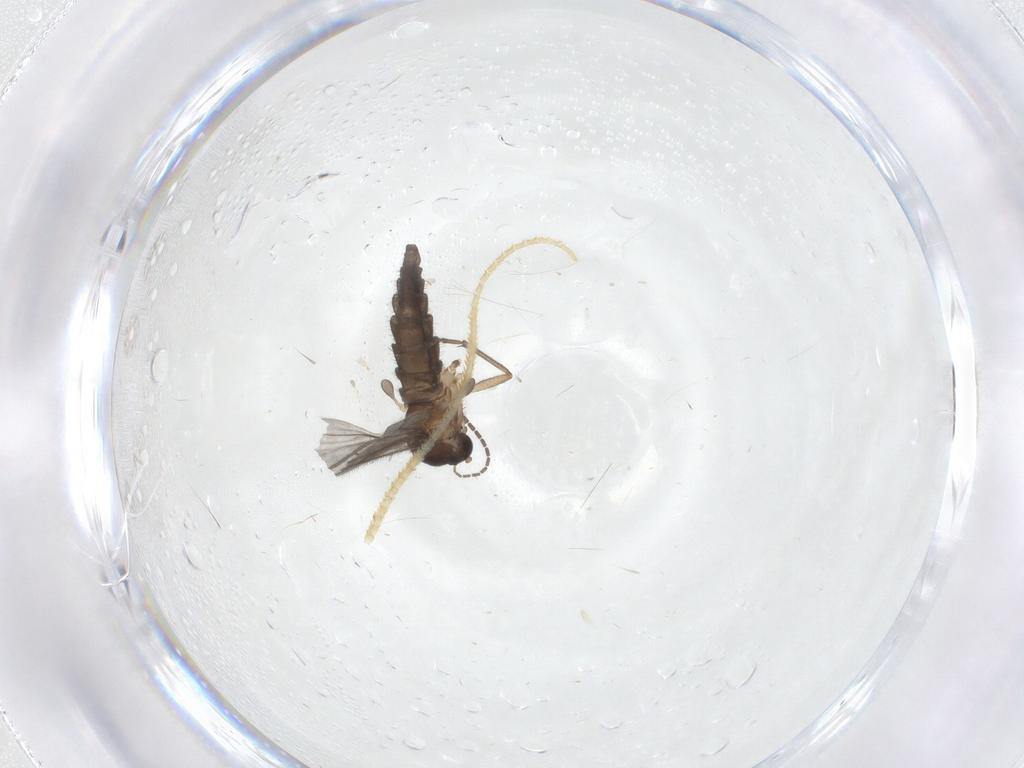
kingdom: Animalia
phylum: Arthropoda
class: Insecta
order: Diptera
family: Sciaridae
